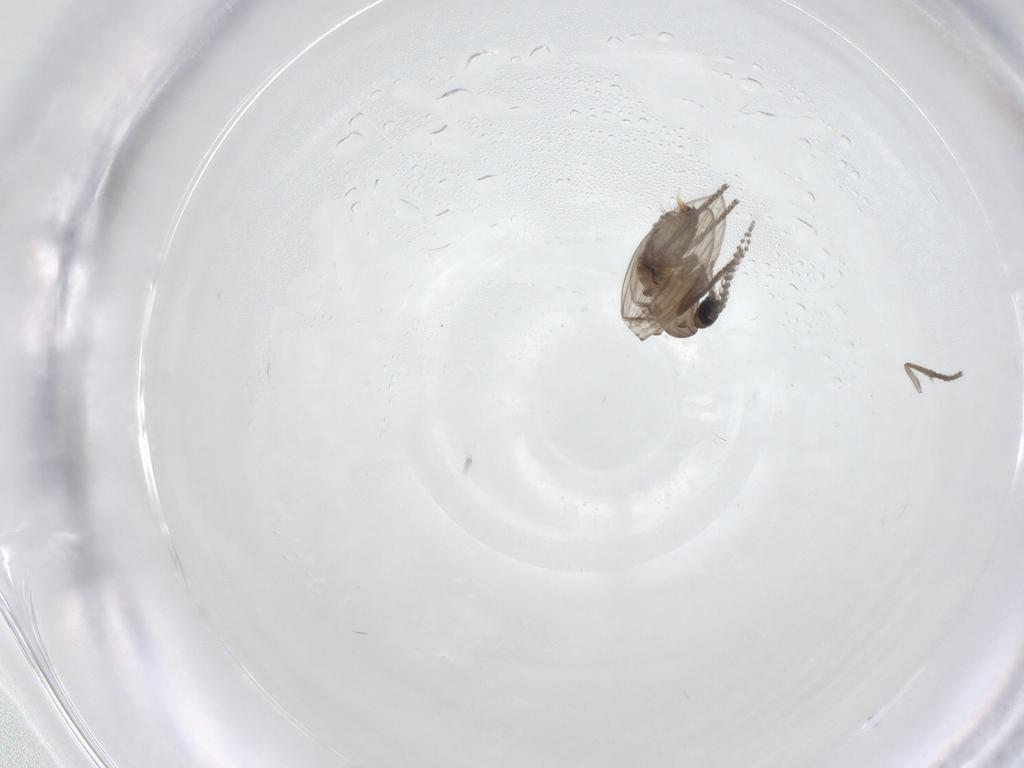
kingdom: Animalia
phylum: Arthropoda
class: Insecta
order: Diptera
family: Psychodidae
